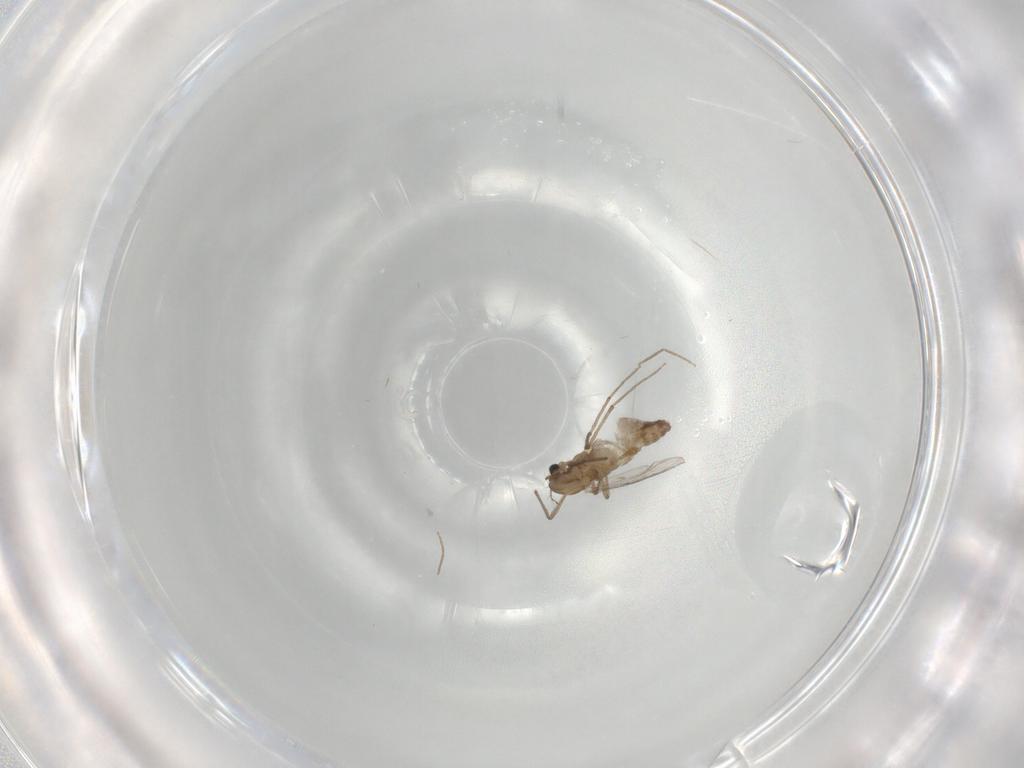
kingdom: Animalia
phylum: Arthropoda
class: Insecta
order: Diptera
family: Chironomidae
